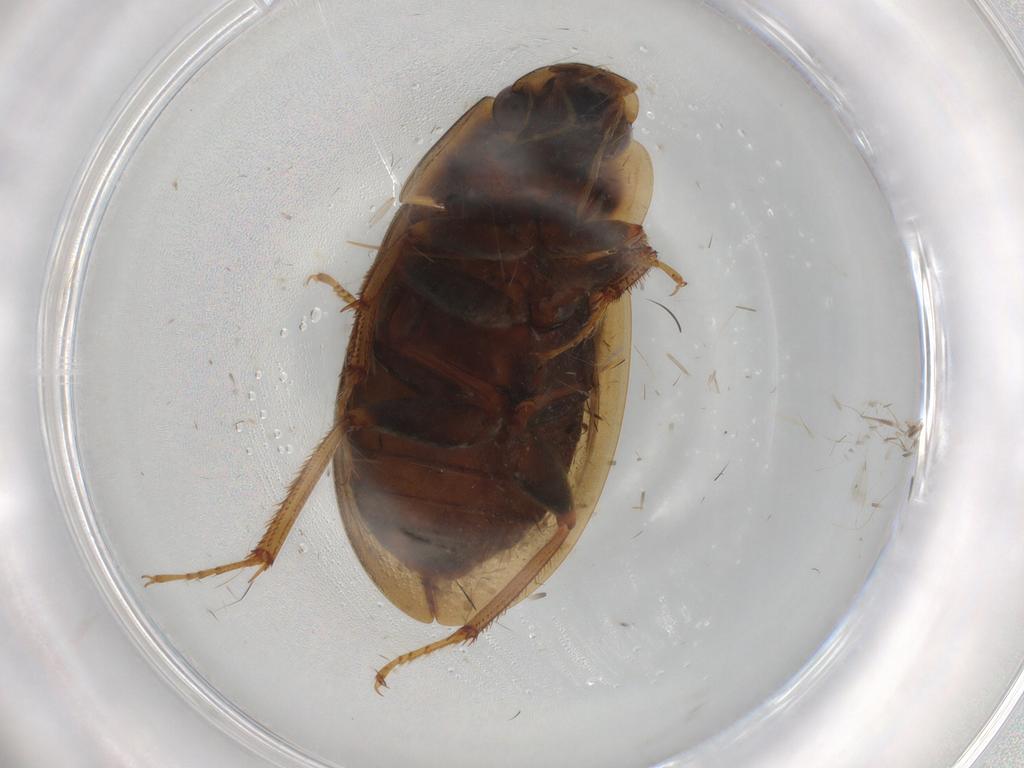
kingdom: Animalia
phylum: Arthropoda
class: Insecta
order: Coleoptera
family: Hydrophilidae
